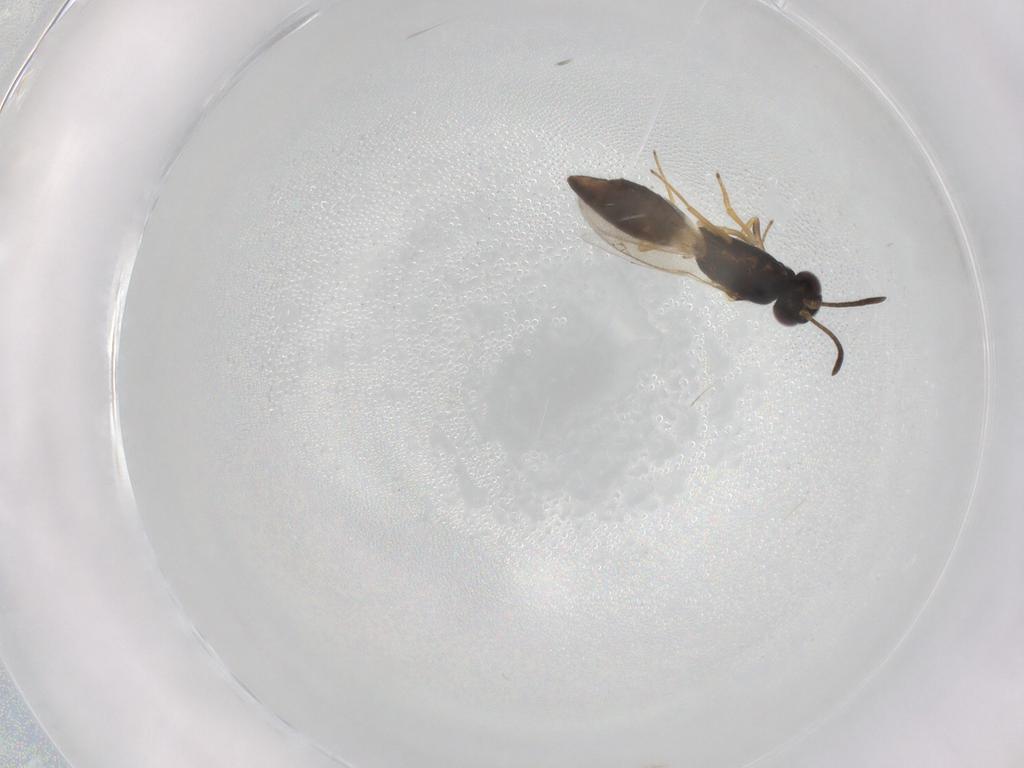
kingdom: Animalia
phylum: Arthropoda
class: Insecta
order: Hymenoptera
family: Eupelmidae
